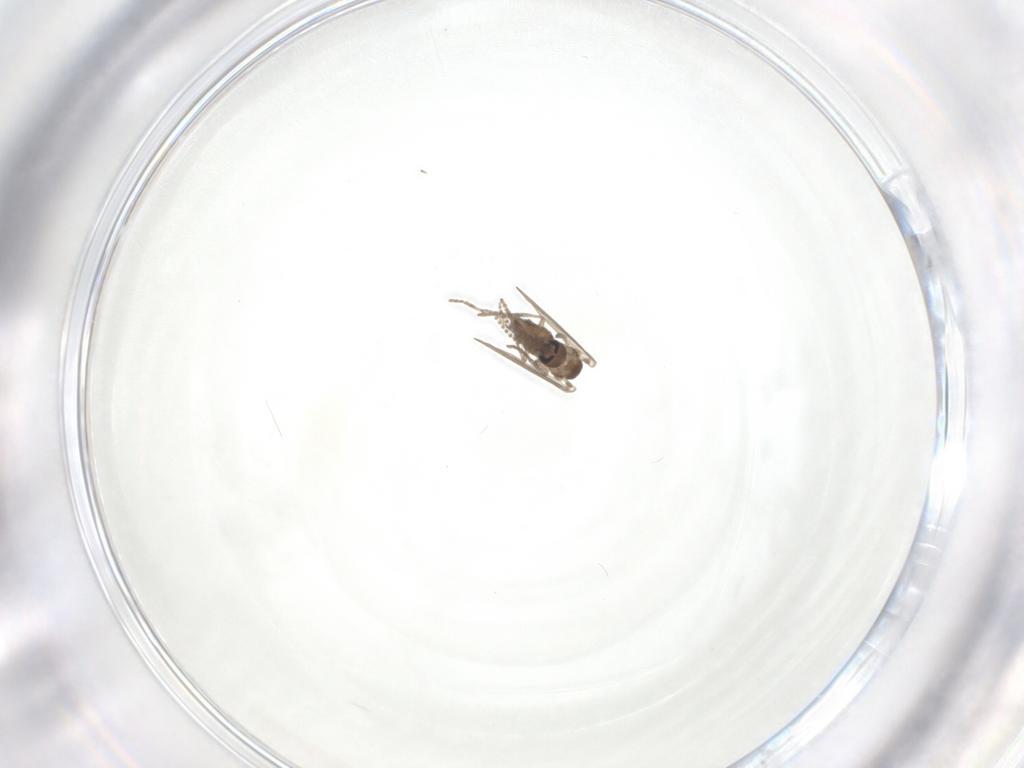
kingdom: Animalia
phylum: Arthropoda
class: Insecta
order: Diptera
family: Psychodidae
